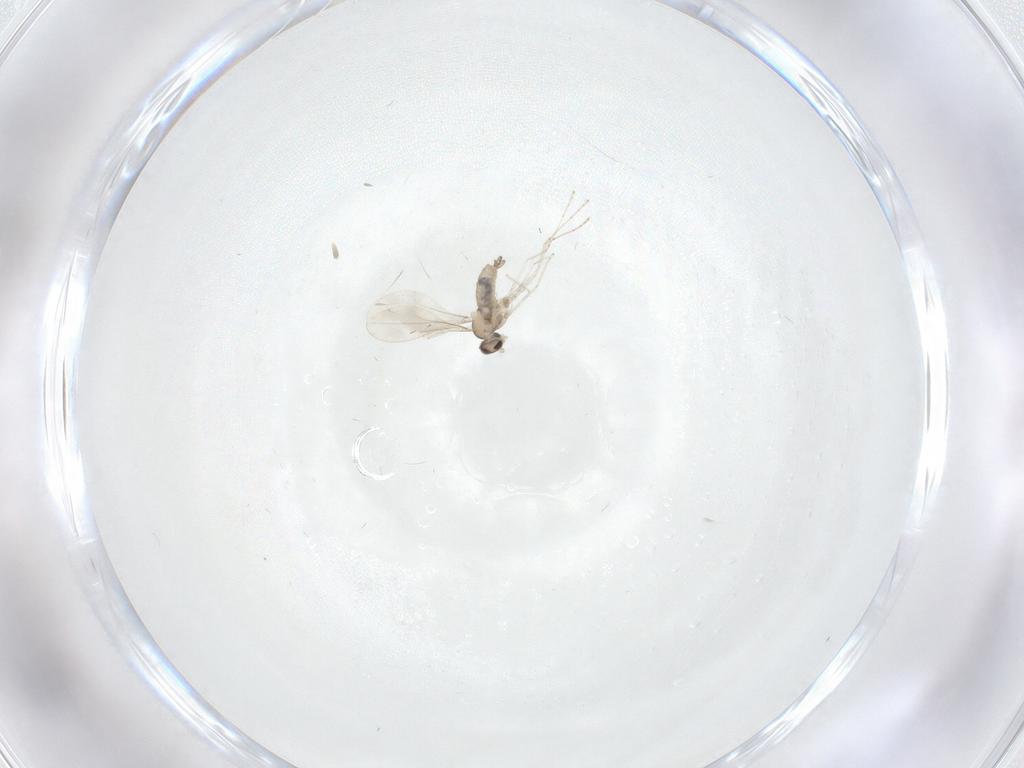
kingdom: Animalia
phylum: Arthropoda
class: Insecta
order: Diptera
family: Cecidomyiidae
